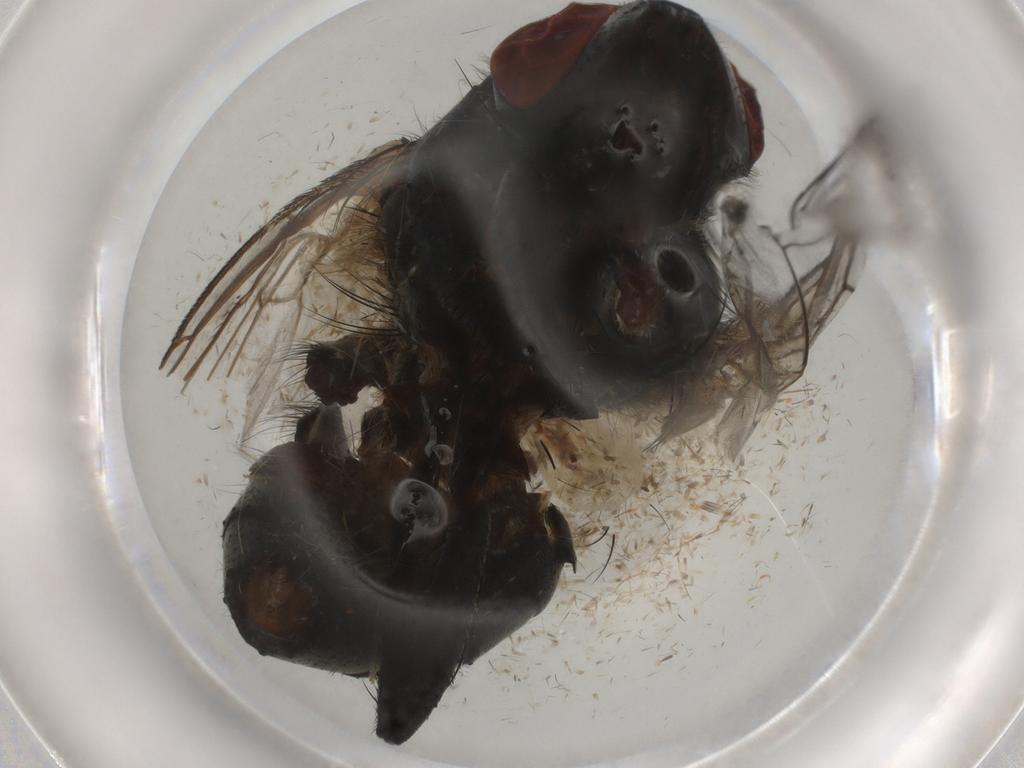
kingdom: Animalia
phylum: Arthropoda
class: Insecta
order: Diptera
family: Sarcophagidae
